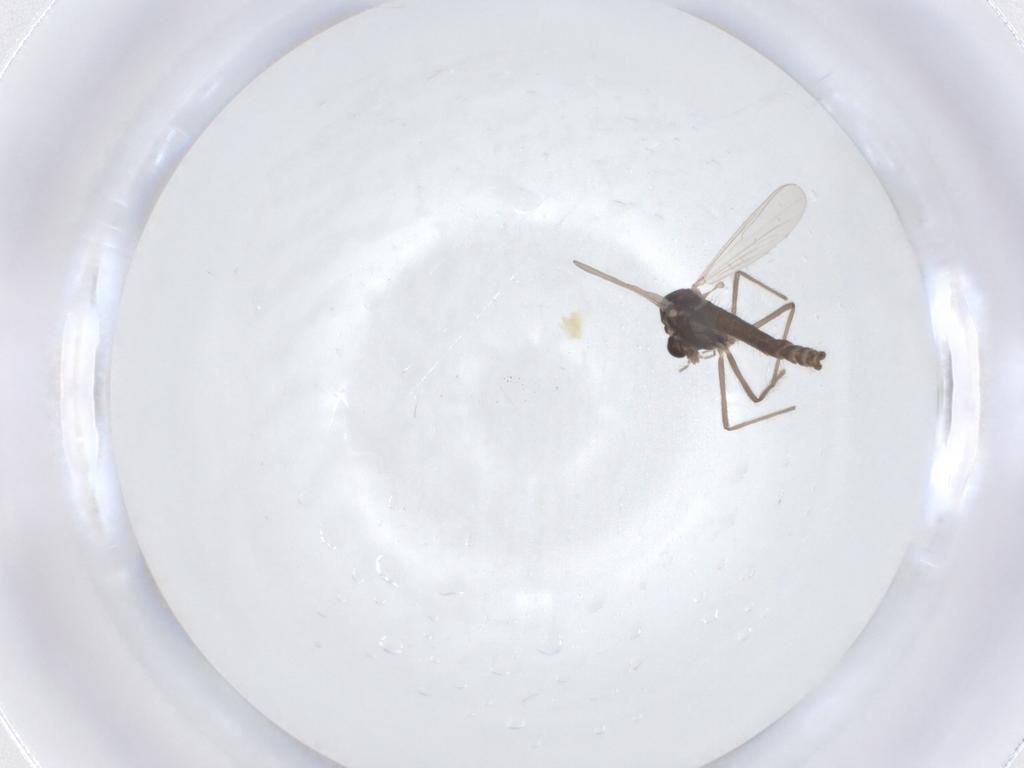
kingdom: Animalia
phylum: Arthropoda
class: Insecta
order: Diptera
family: Chironomidae
